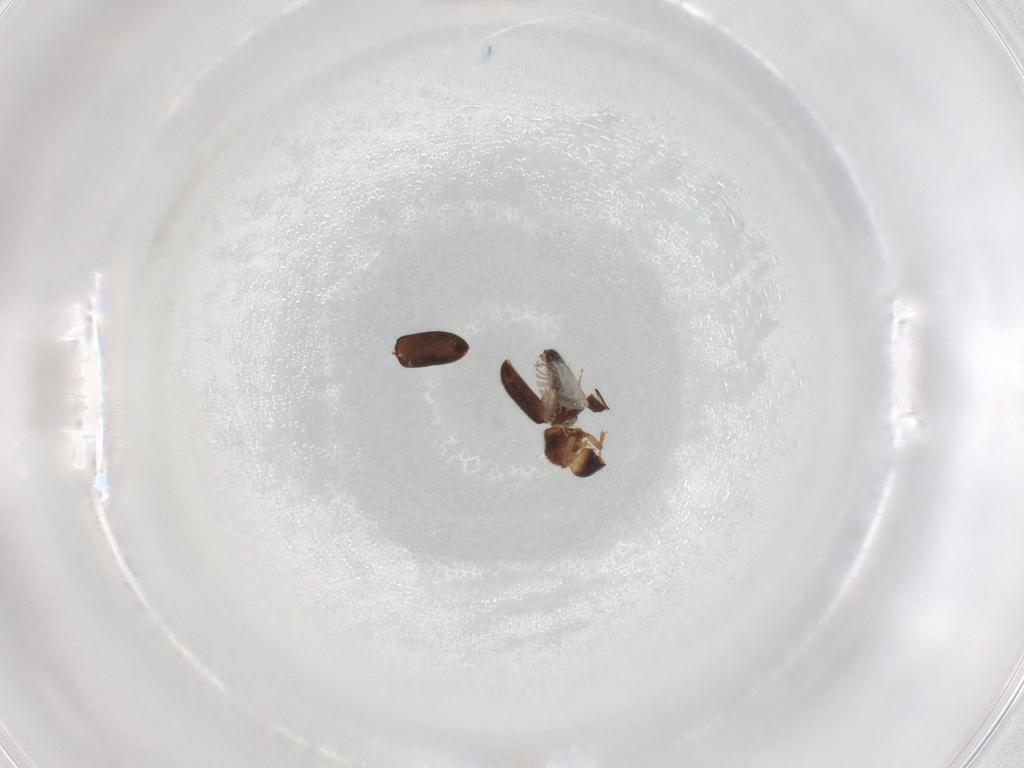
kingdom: Animalia
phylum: Arthropoda
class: Insecta
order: Coleoptera
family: Curculionidae
